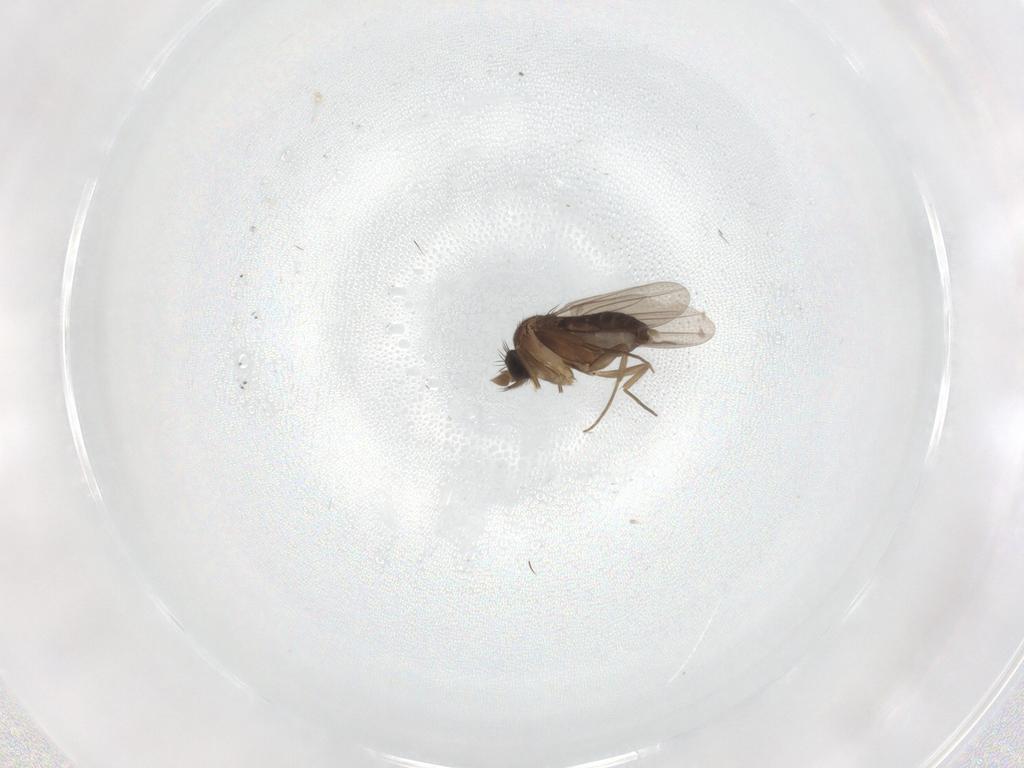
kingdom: Animalia
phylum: Arthropoda
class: Insecta
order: Diptera
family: Phoridae
